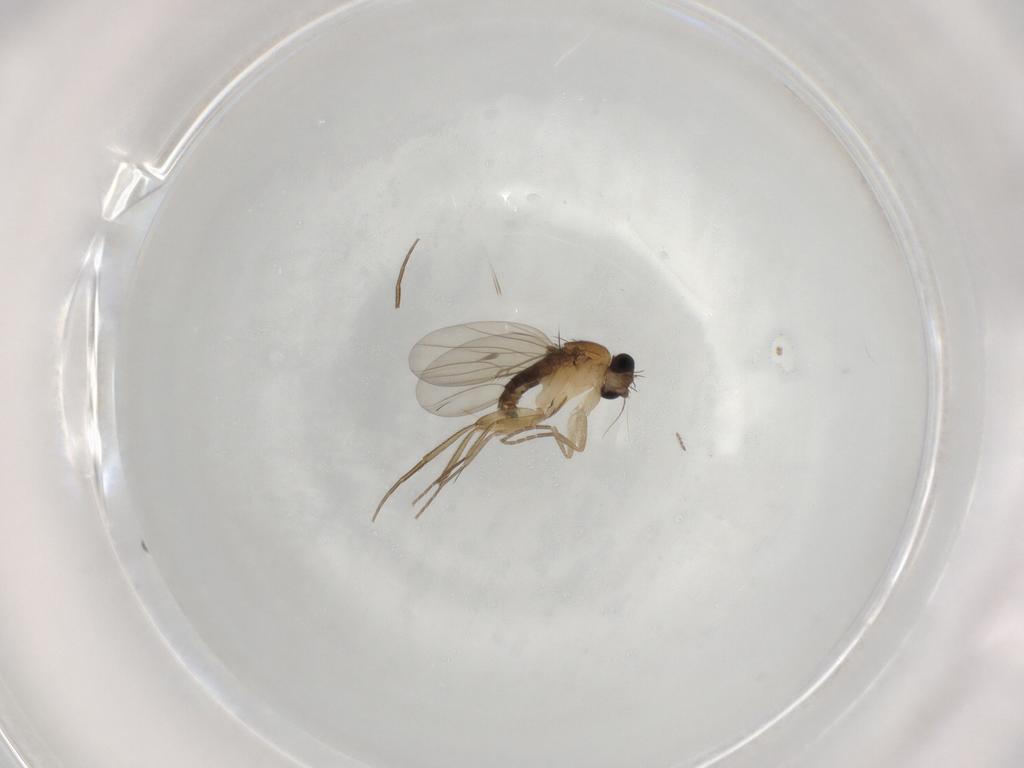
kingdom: Animalia
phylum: Arthropoda
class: Insecta
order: Diptera
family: Phoridae
